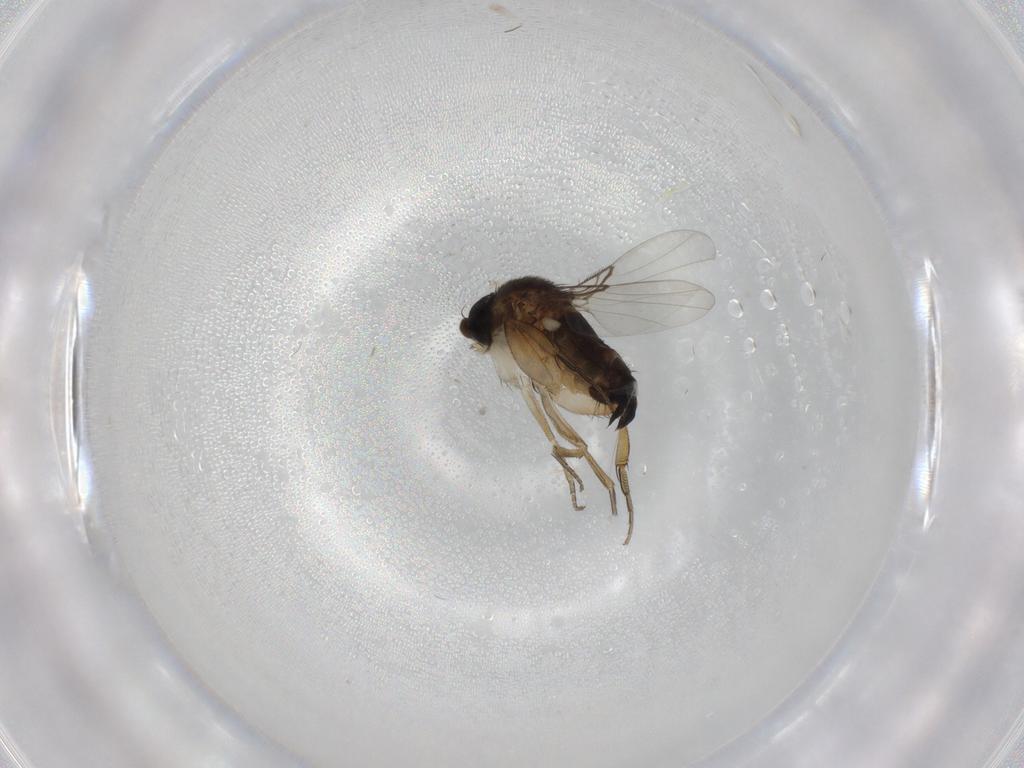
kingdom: Animalia
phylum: Arthropoda
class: Insecta
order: Diptera
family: Phoridae
